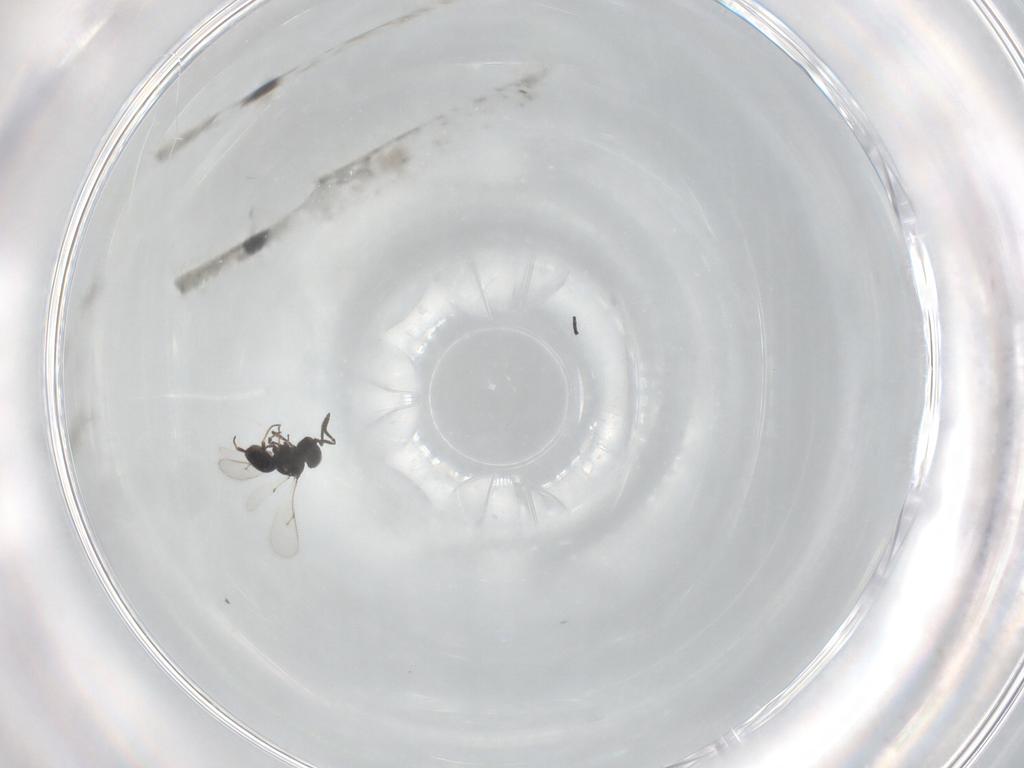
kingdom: Animalia
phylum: Arthropoda
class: Insecta
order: Hymenoptera
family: Scelionidae
